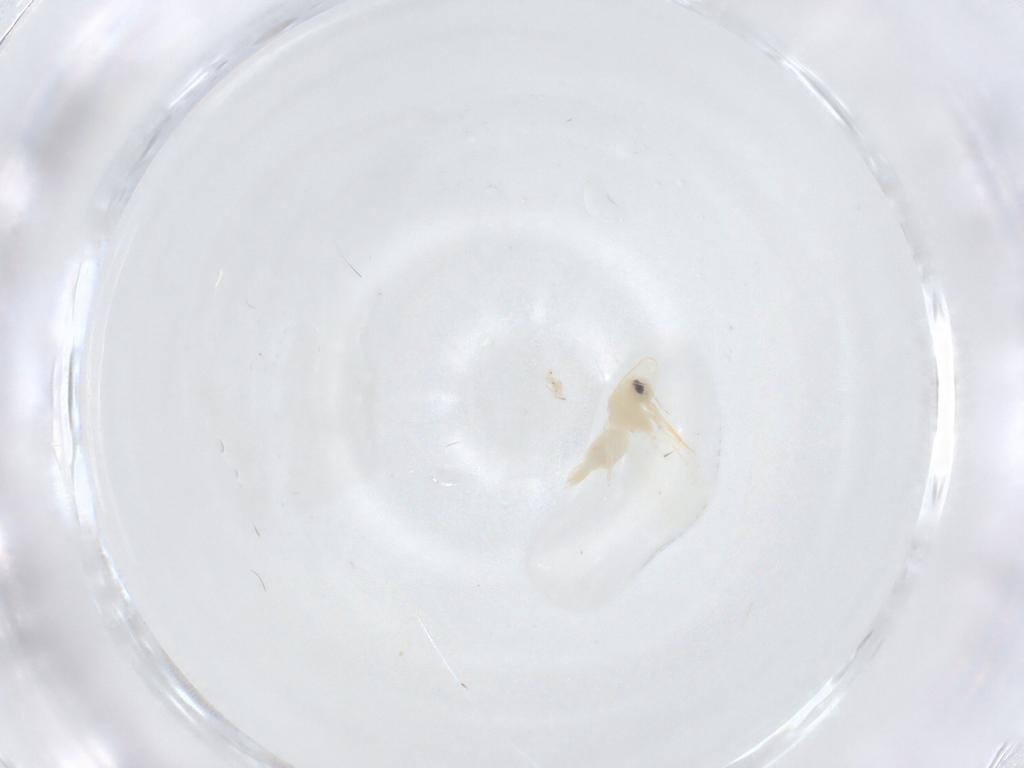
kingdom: Animalia
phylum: Arthropoda
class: Insecta
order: Hemiptera
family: Aleyrodidae
